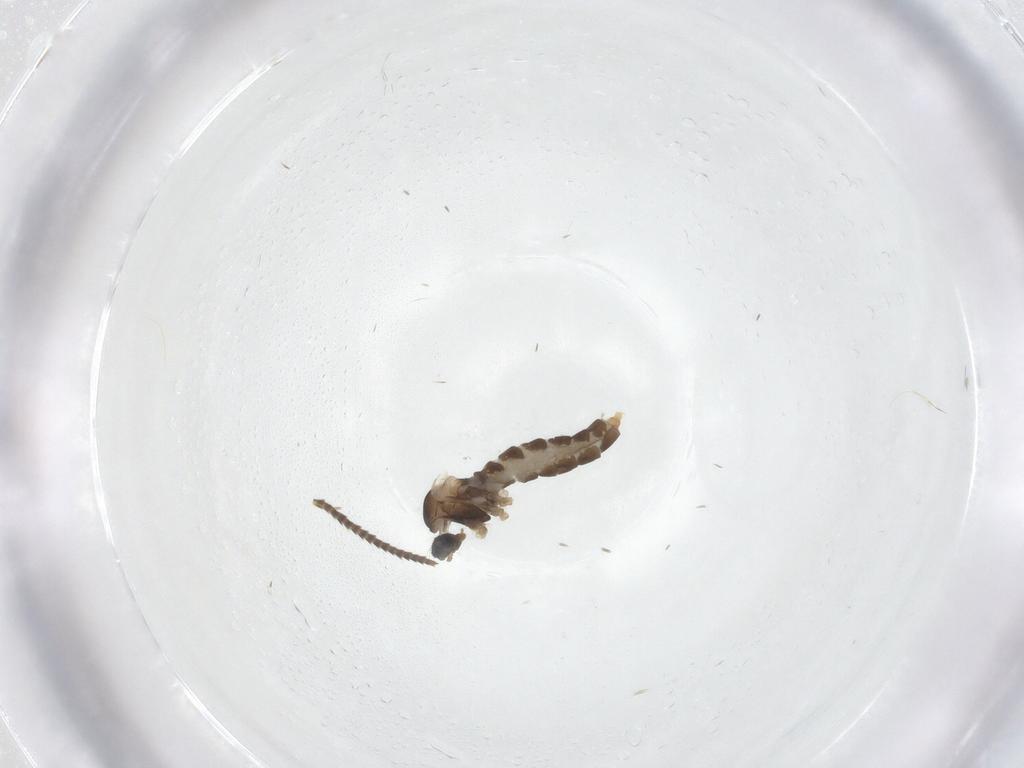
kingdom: Animalia
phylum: Arthropoda
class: Insecta
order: Diptera
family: Cecidomyiidae
